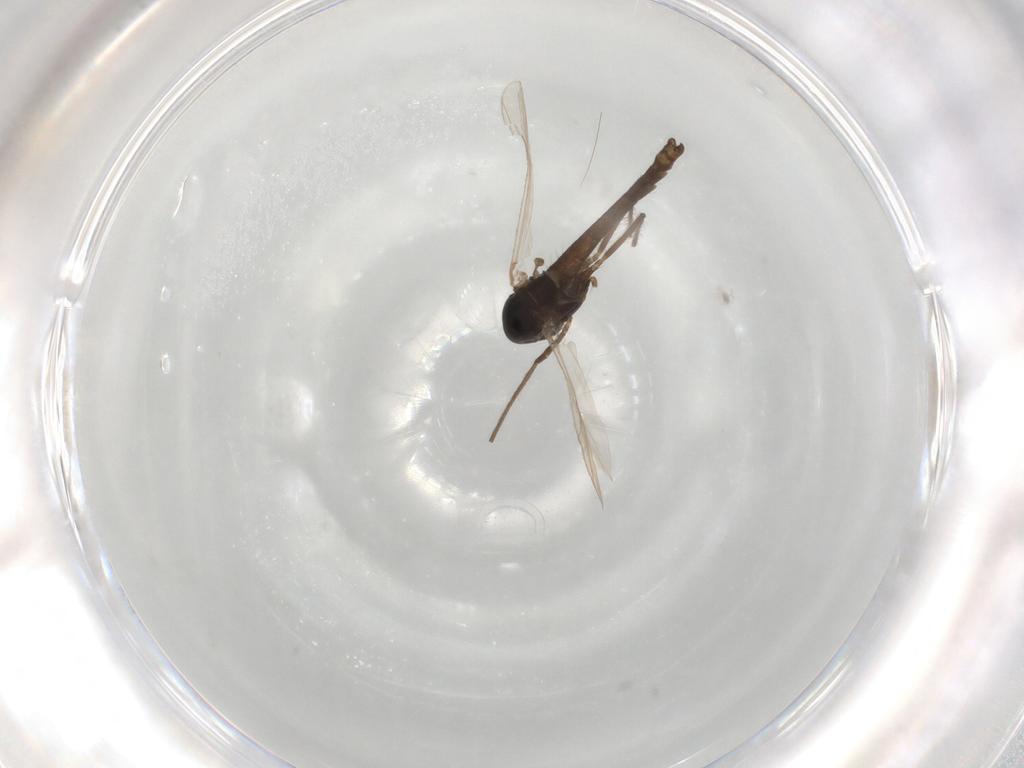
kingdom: Animalia
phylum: Arthropoda
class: Insecta
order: Diptera
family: Chironomidae
